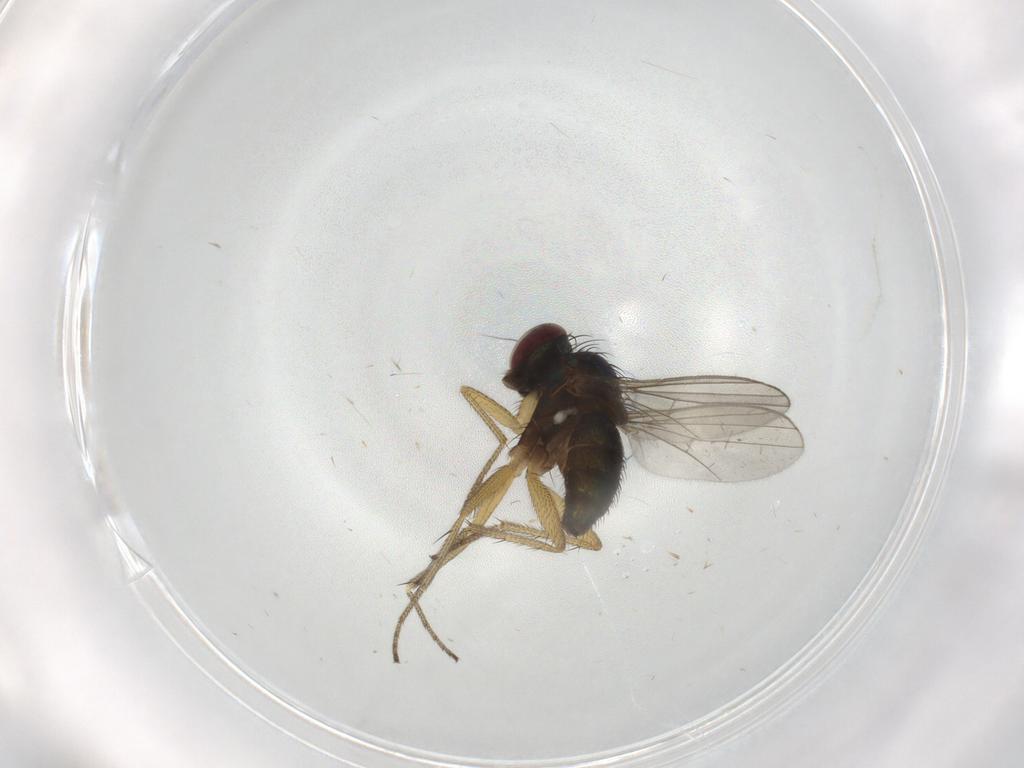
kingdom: Animalia
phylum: Arthropoda
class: Insecta
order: Diptera
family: Dolichopodidae
